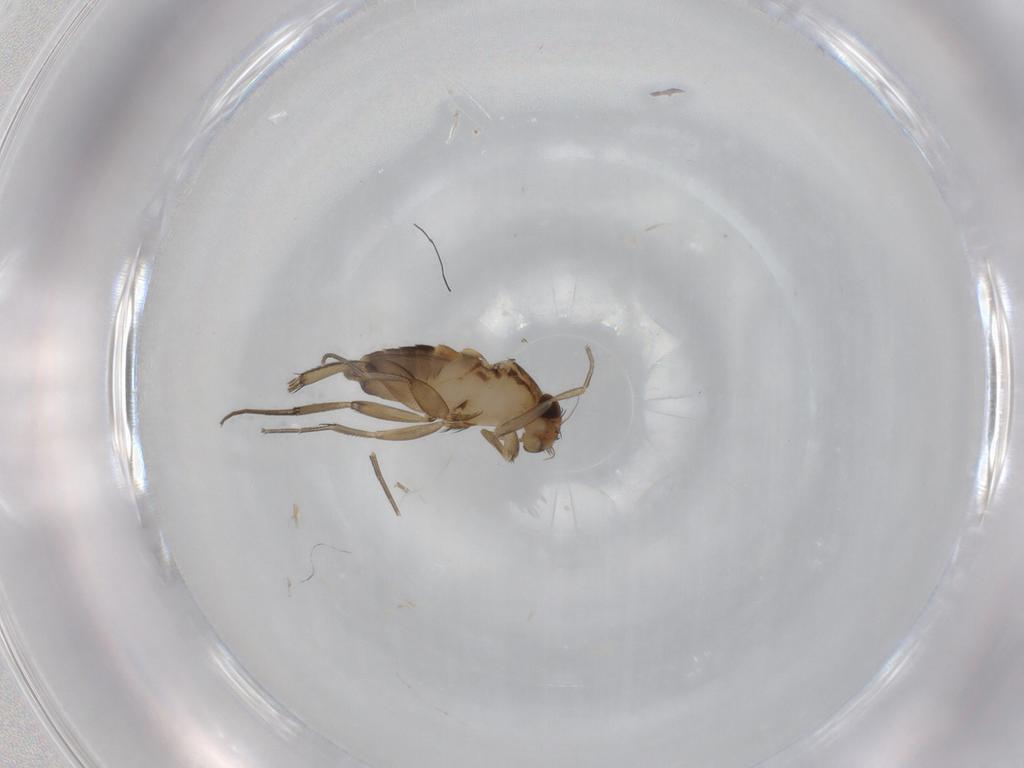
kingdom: Animalia
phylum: Arthropoda
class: Insecta
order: Diptera
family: Phoridae
